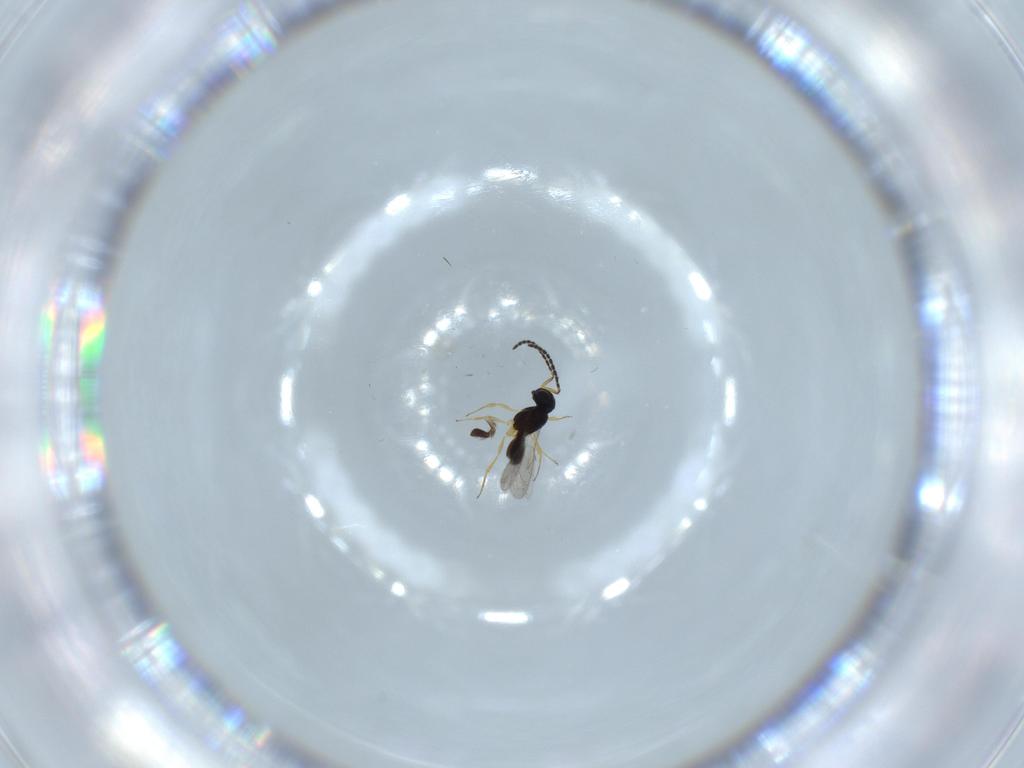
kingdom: Animalia
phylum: Arthropoda
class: Insecta
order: Hymenoptera
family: Scelionidae
